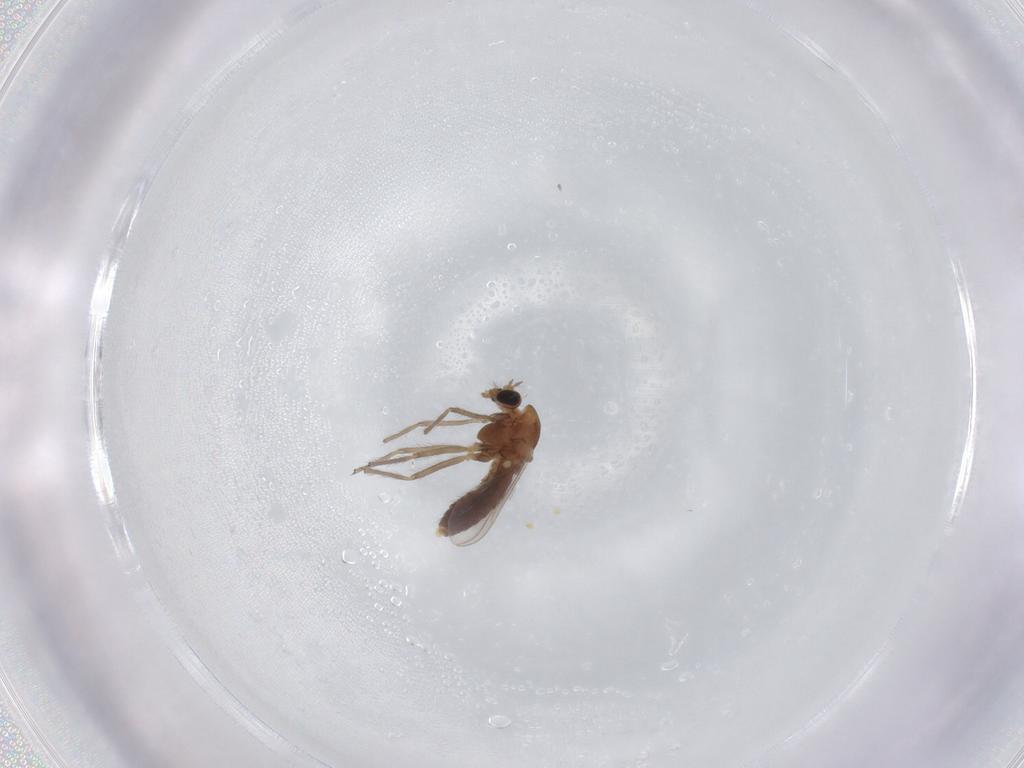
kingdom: Animalia
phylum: Arthropoda
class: Insecta
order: Diptera
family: Chironomidae
